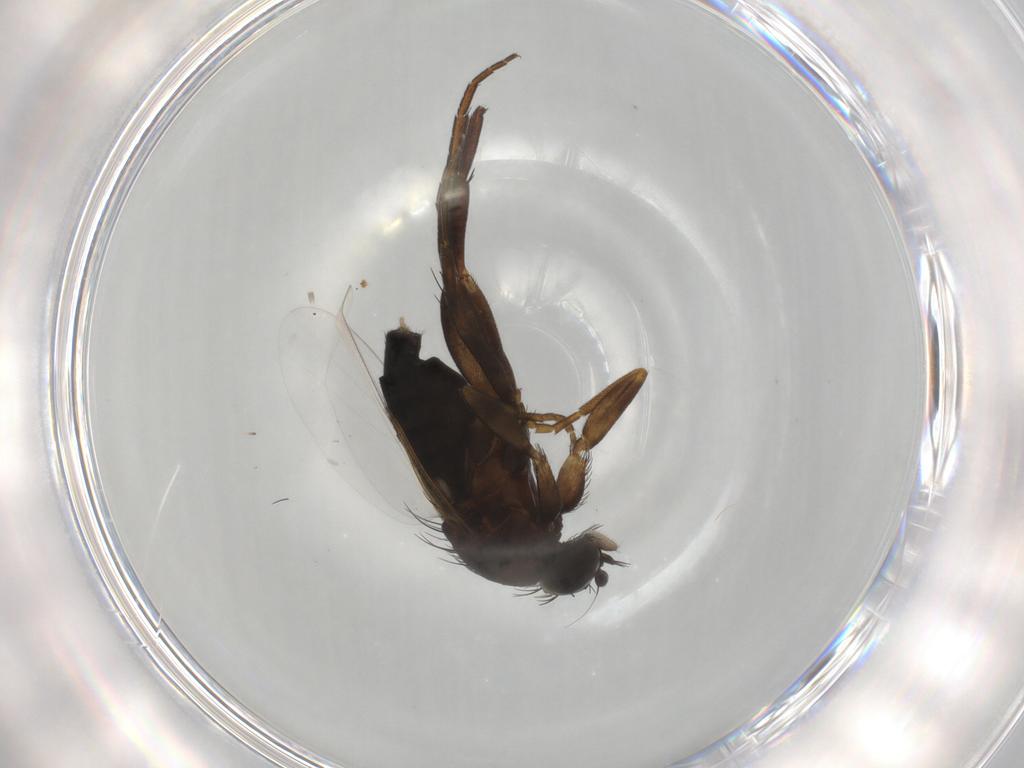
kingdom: Animalia
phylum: Arthropoda
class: Insecta
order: Diptera
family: Phoridae
